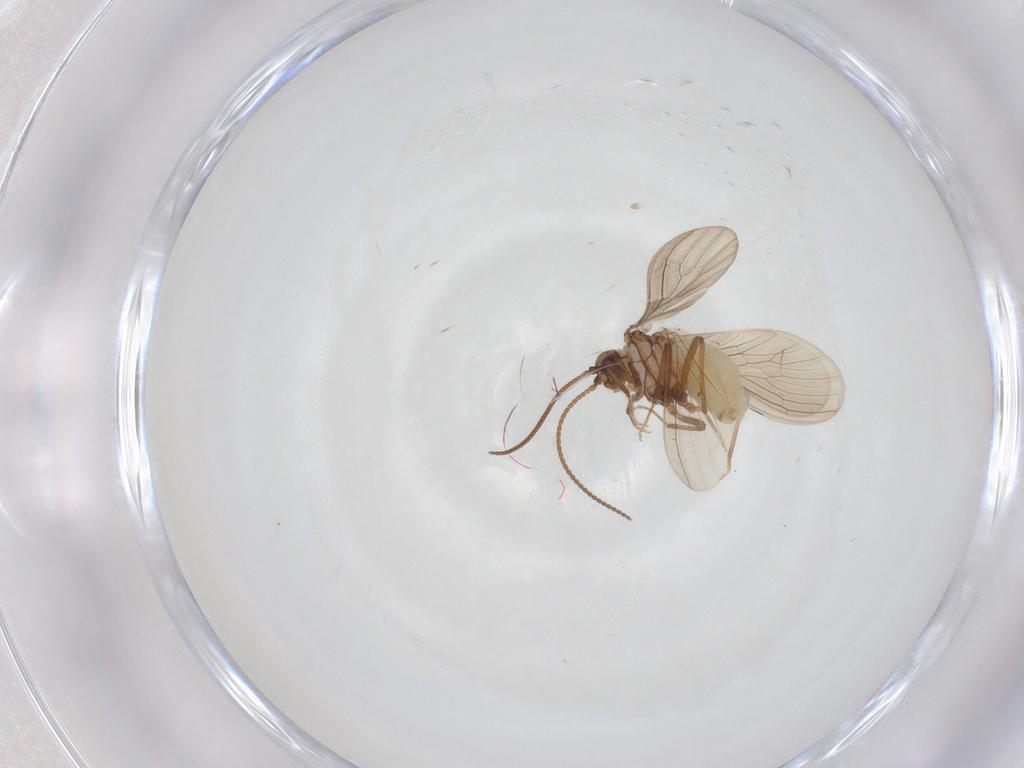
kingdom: Animalia
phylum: Arthropoda
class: Insecta
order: Neuroptera
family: Coniopterygidae
